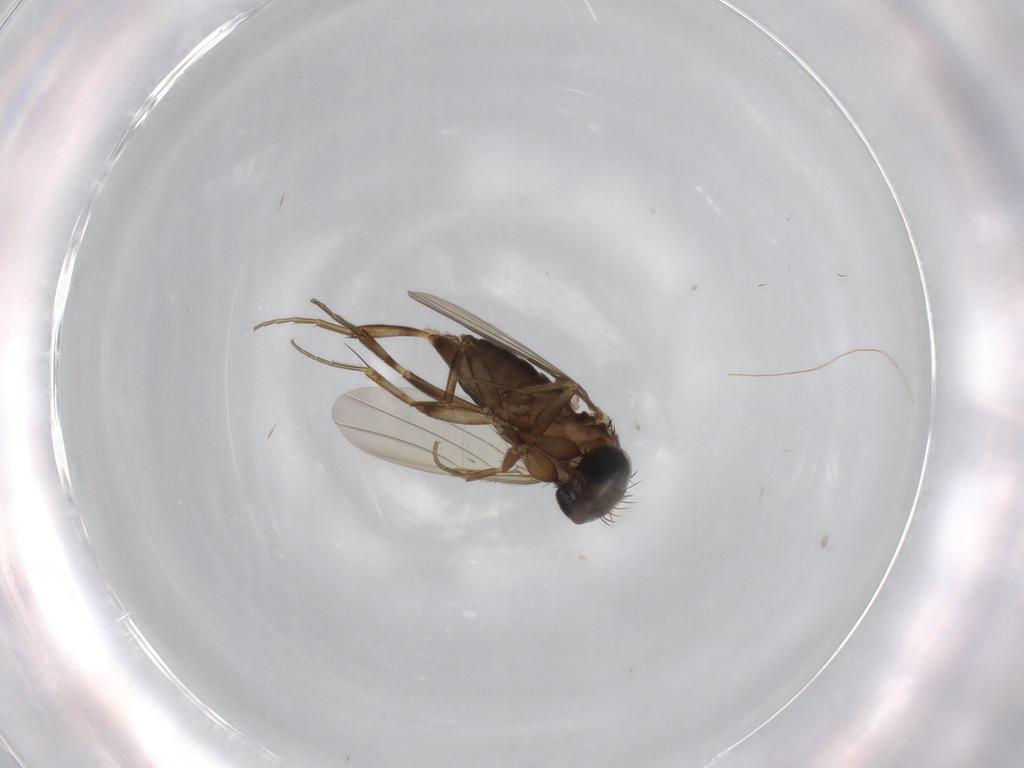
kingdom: Animalia
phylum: Arthropoda
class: Insecta
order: Diptera
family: Phoridae
